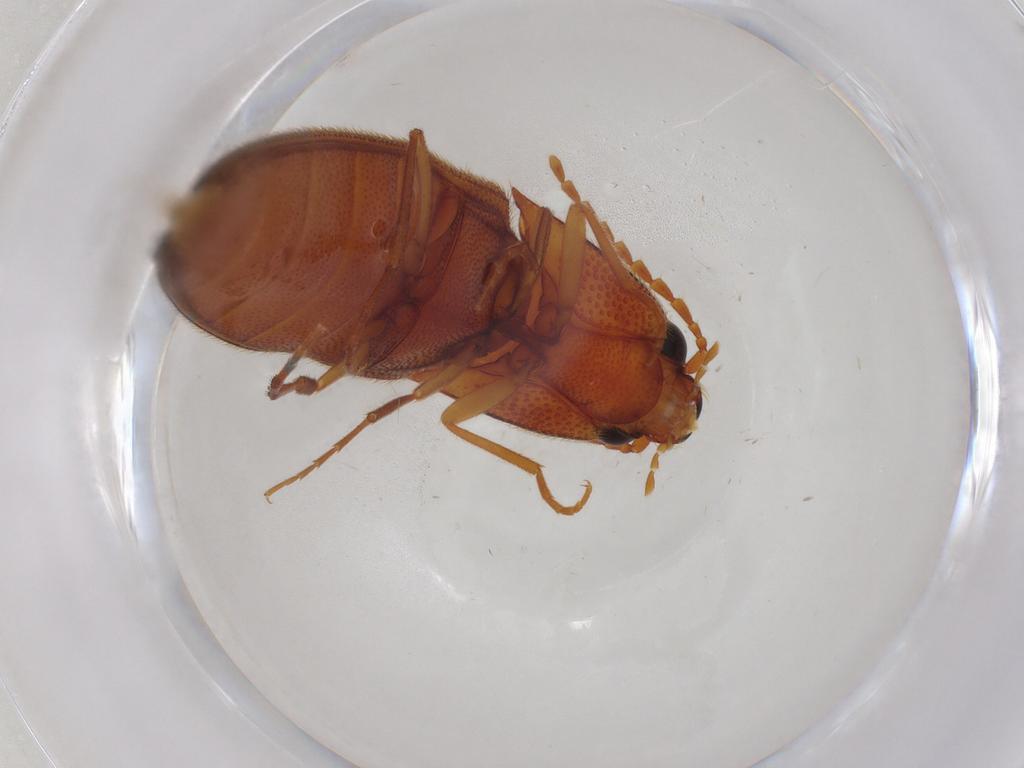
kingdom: Animalia
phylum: Arthropoda
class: Insecta
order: Coleoptera
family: Elateridae
